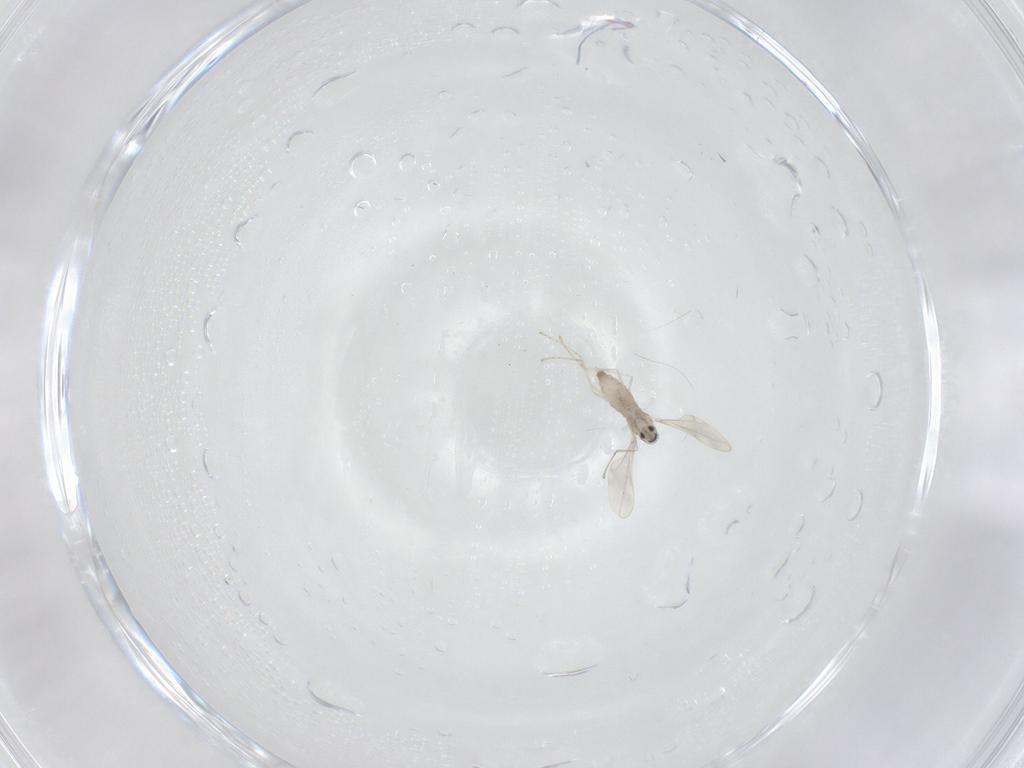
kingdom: Animalia
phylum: Arthropoda
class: Insecta
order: Diptera
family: Cecidomyiidae
